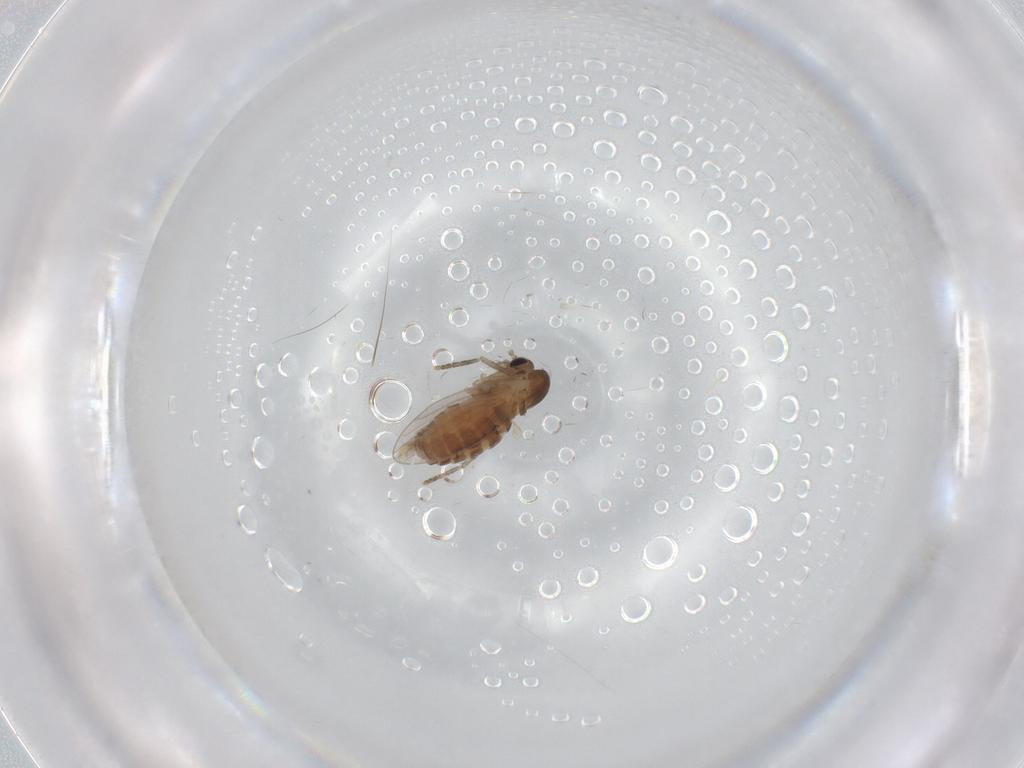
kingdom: Animalia
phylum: Arthropoda
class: Insecta
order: Diptera
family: Psychodidae
